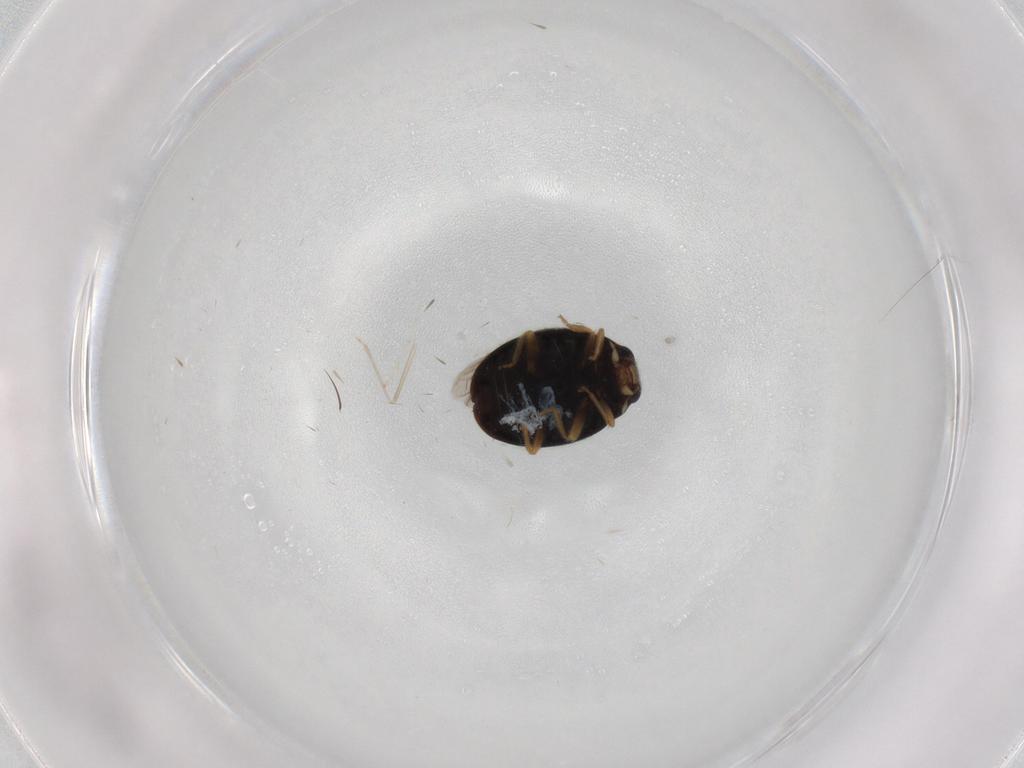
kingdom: Animalia
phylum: Arthropoda
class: Insecta
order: Coleoptera
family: Coccinellidae
